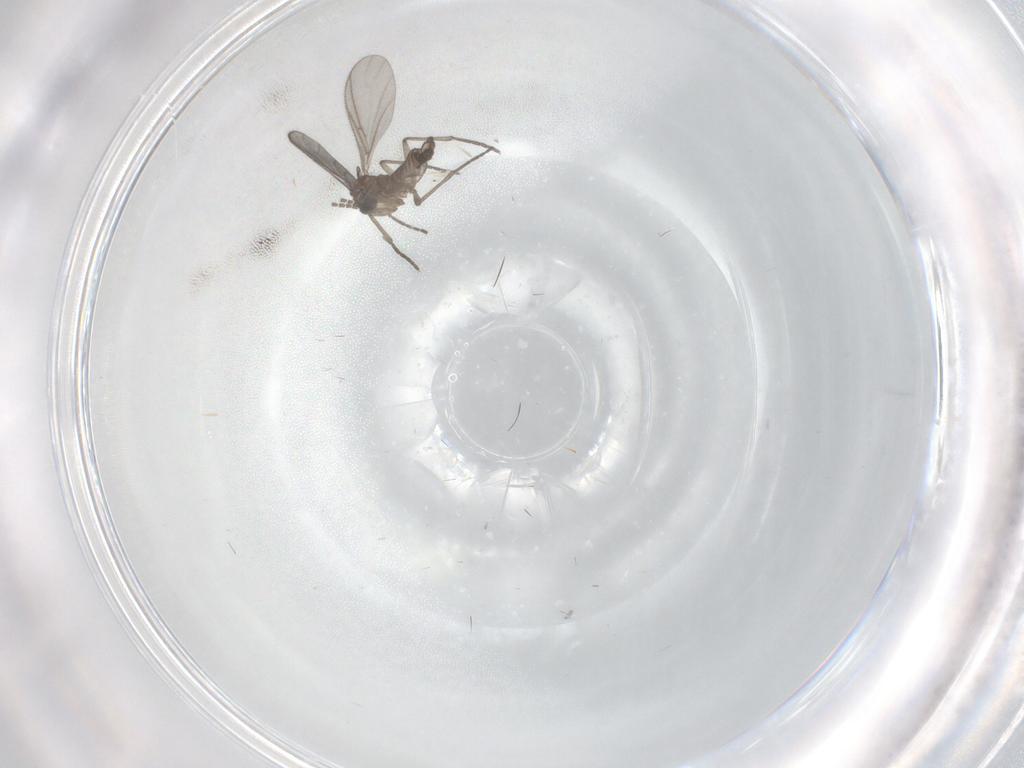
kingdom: Animalia
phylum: Arthropoda
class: Insecta
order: Diptera
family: Sciaridae
